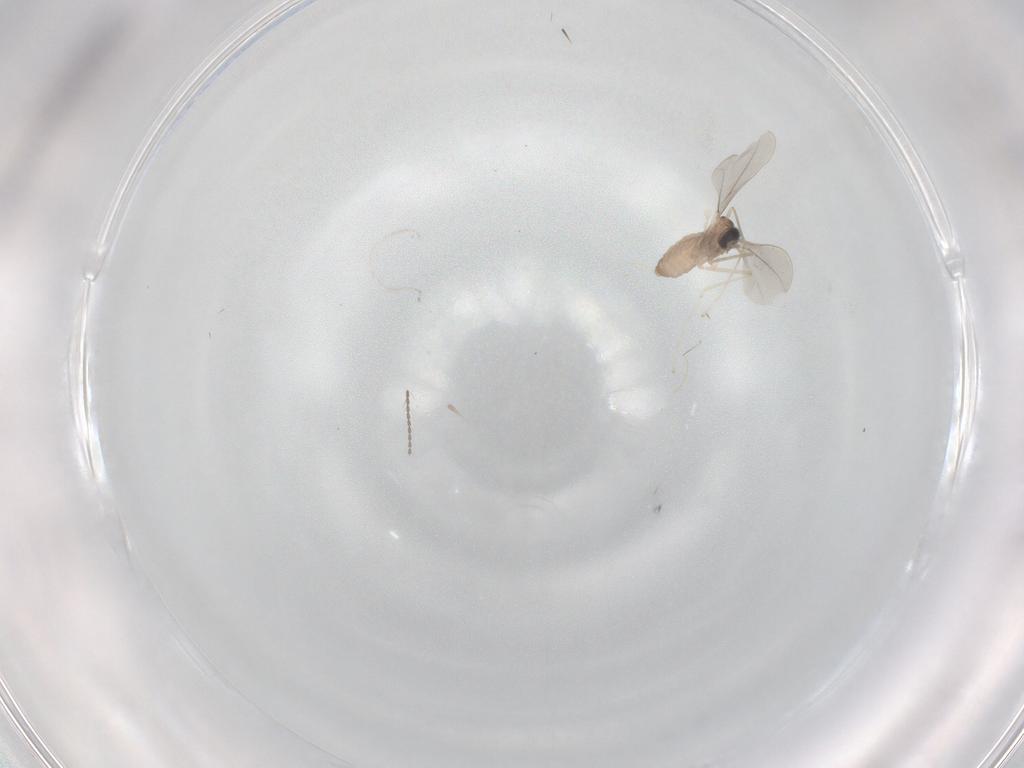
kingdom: Animalia
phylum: Arthropoda
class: Insecta
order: Diptera
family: Cecidomyiidae
